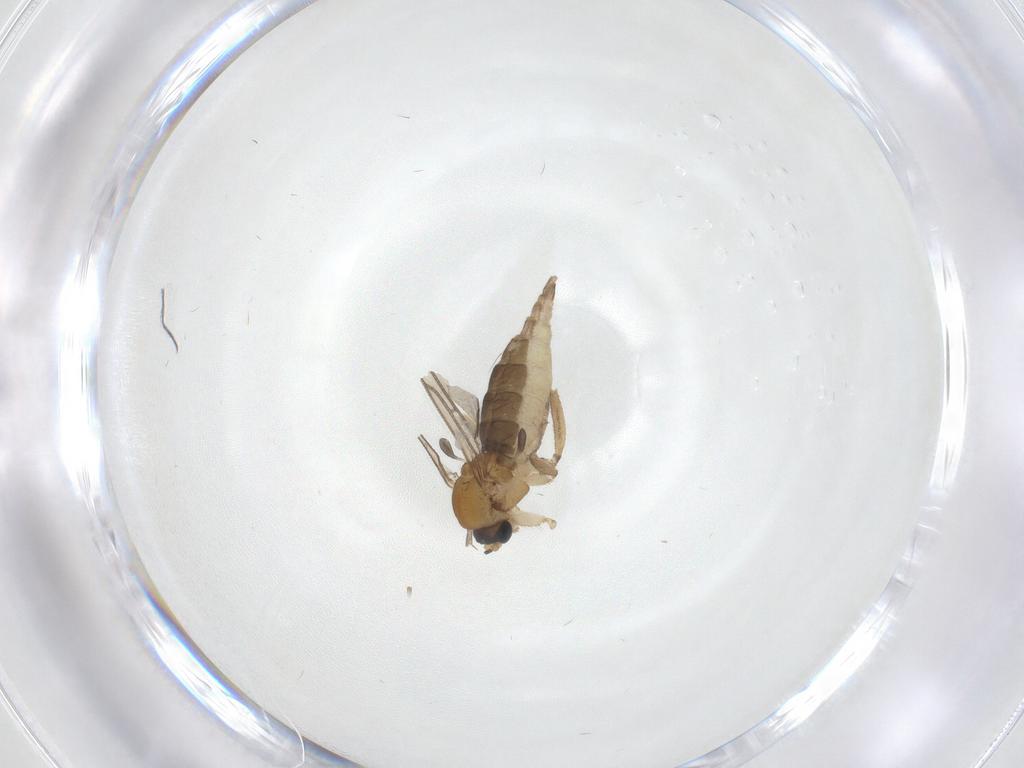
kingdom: Animalia
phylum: Arthropoda
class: Insecta
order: Diptera
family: Sciaridae
